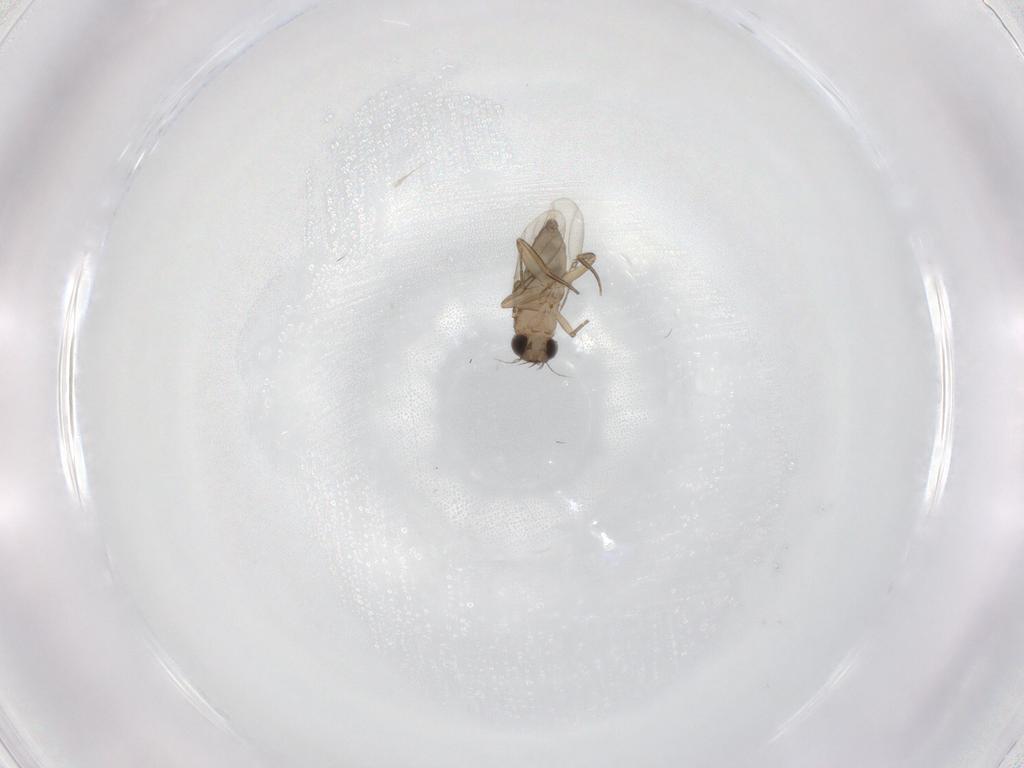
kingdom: Animalia
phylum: Arthropoda
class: Insecta
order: Diptera
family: Phoridae
